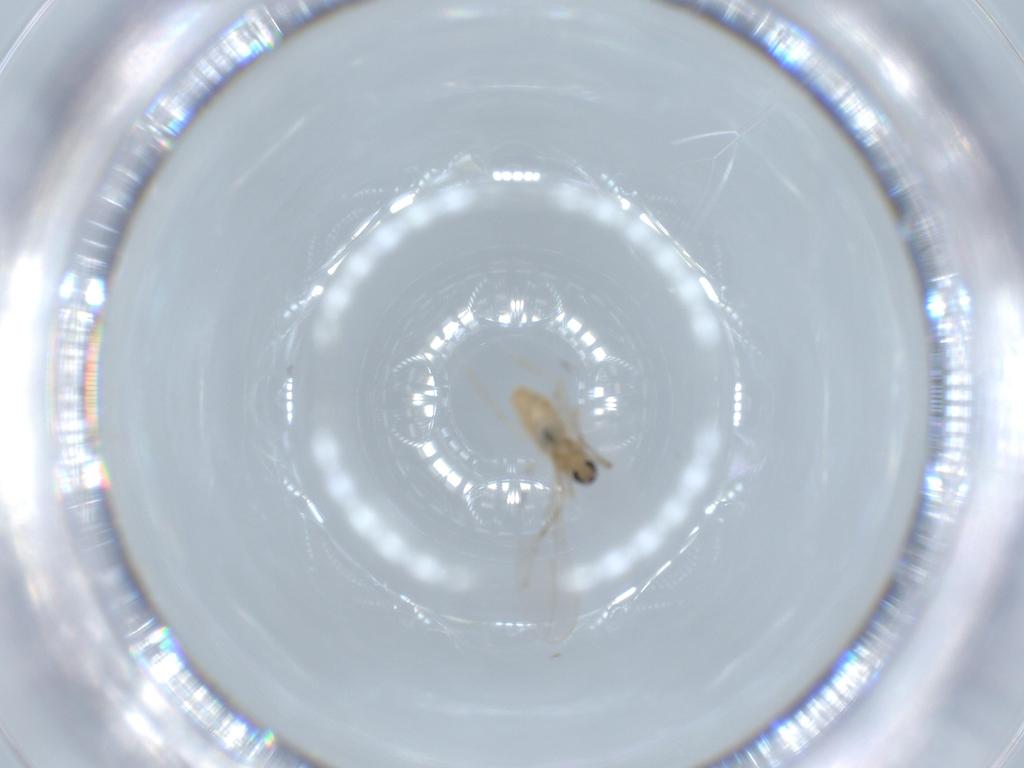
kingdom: Animalia
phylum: Arthropoda
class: Insecta
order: Diptera
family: Cecidomyiidae
